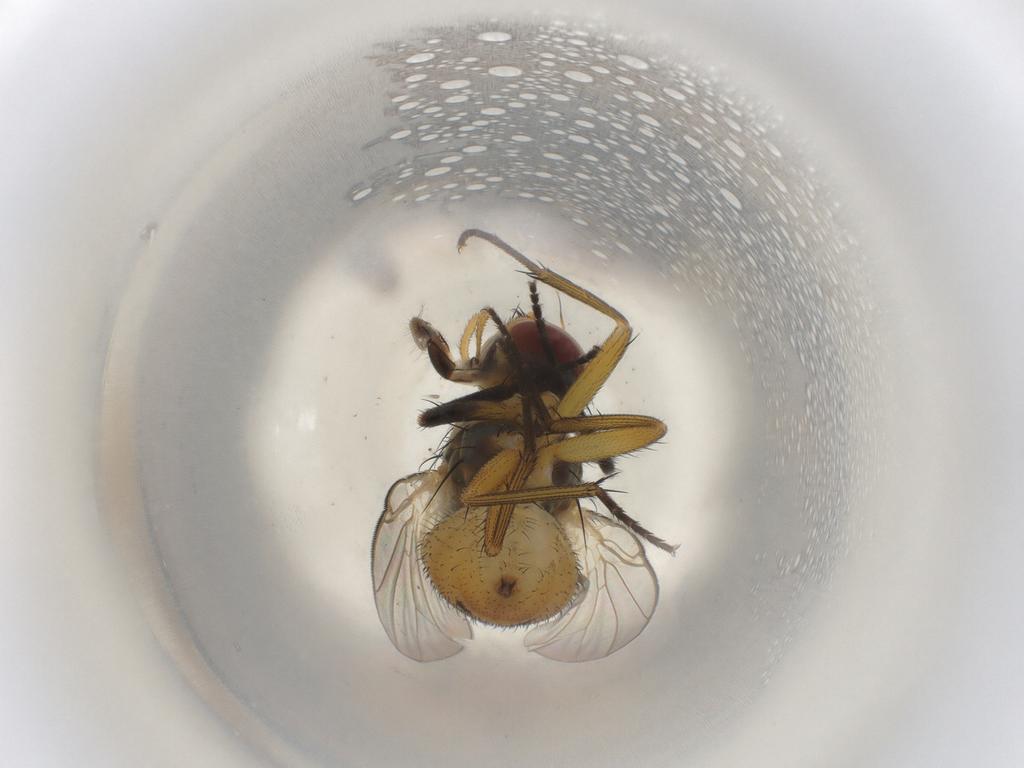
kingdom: Animalia
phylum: Arthropoda
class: Insecta
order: Diptera
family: Muscidae
